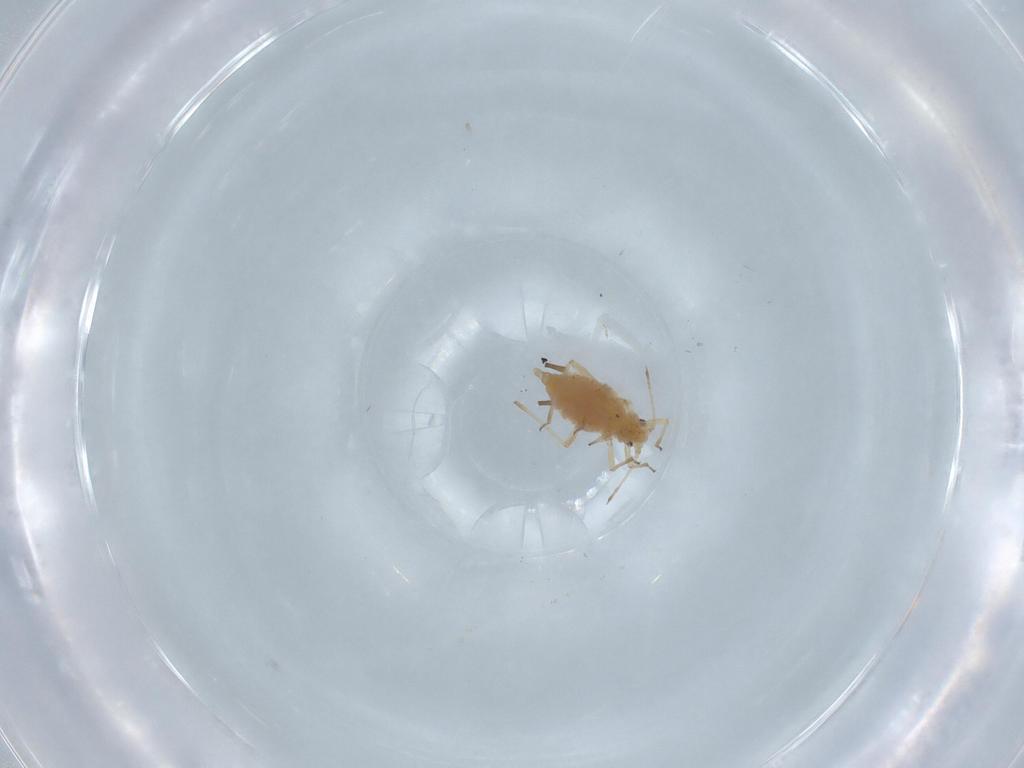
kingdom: Animalia
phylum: Arthropoda
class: Insecta
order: Hemiptera
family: Aphididae
